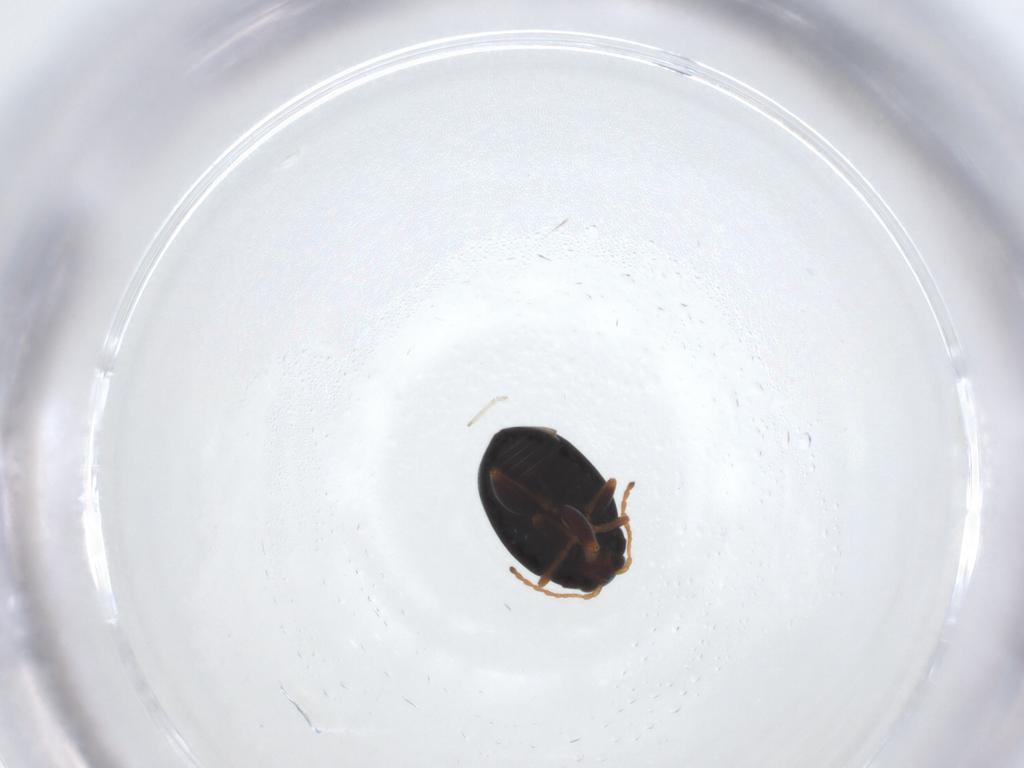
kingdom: Animalia
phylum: Arthropoda
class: Insecta
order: Coleoptera
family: Chrysomelidae
